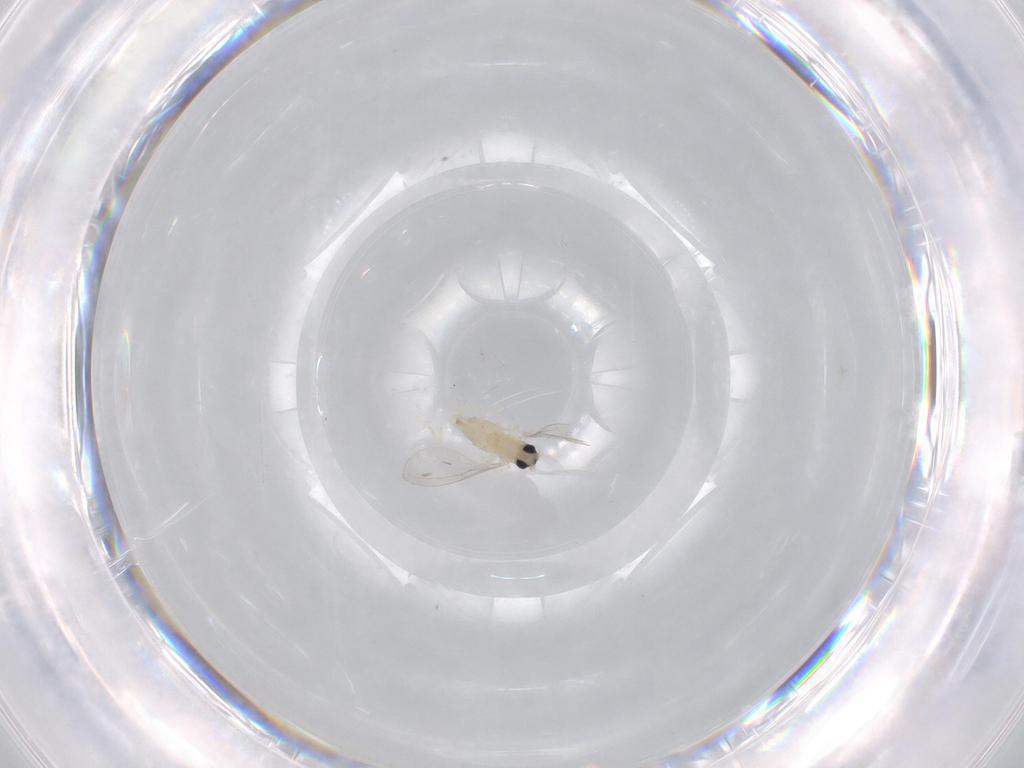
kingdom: Animalia
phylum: Arthropoda
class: Insecta
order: Diptera
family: Cecidomyiidae
